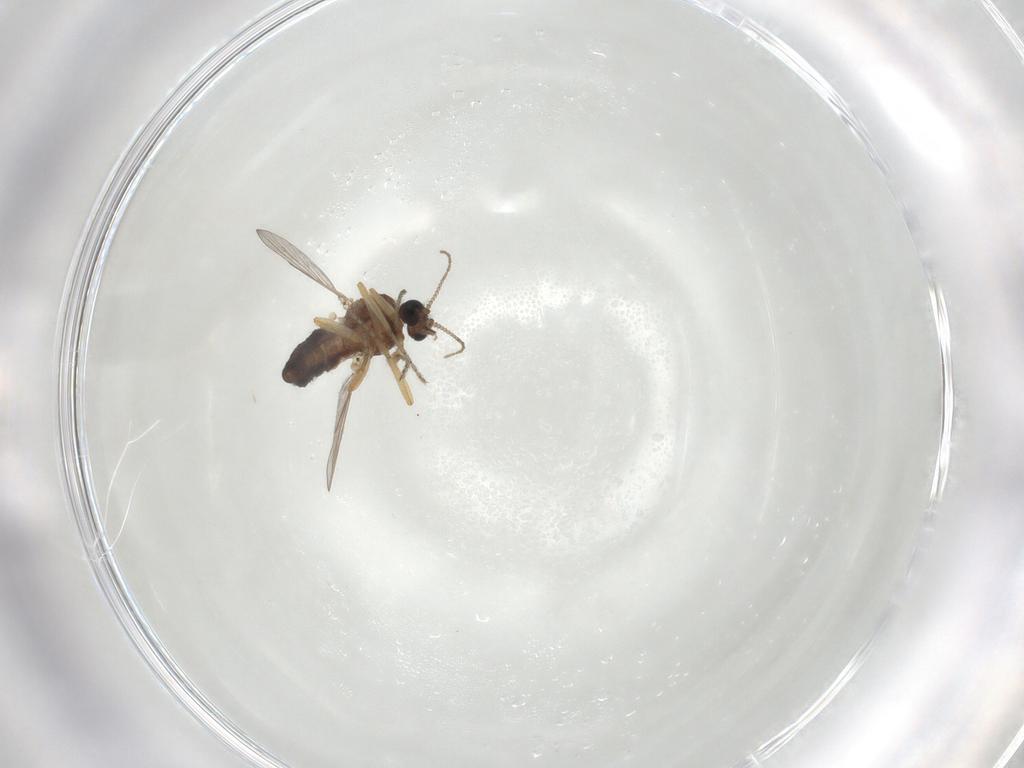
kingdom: Animalia
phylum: Arthropoda
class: Insecta
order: Diptera
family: Ceratopogonidae
